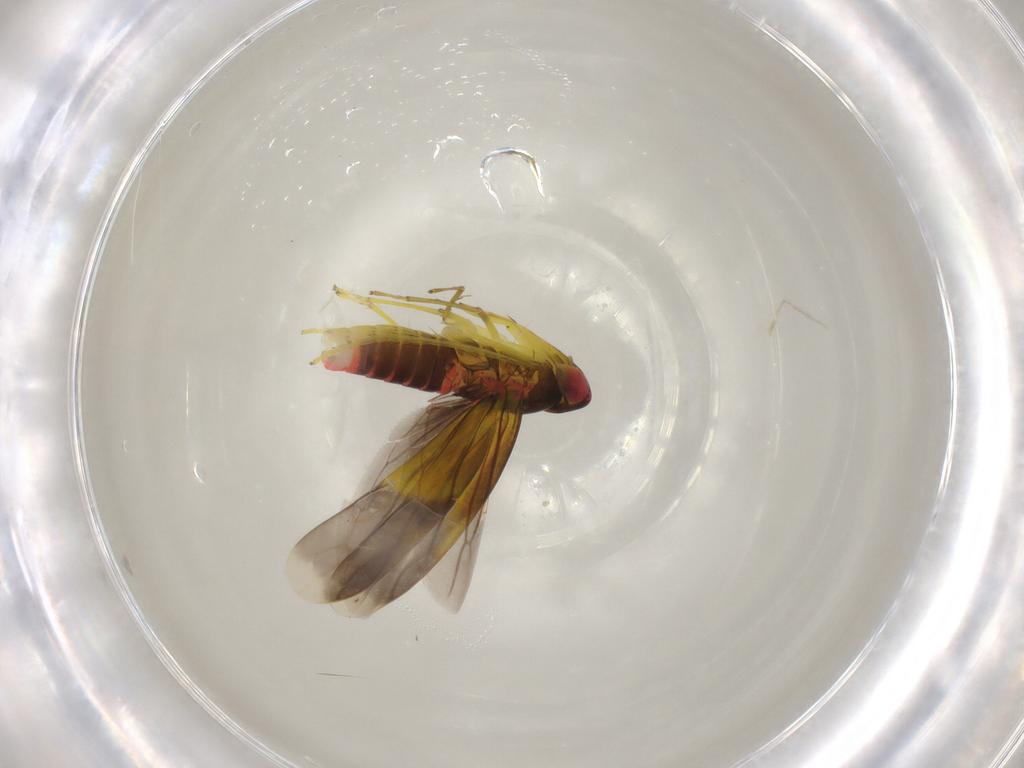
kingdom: Animalia
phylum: Arthropoda
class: Insecta
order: Hemiptera
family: Cicadellidae
